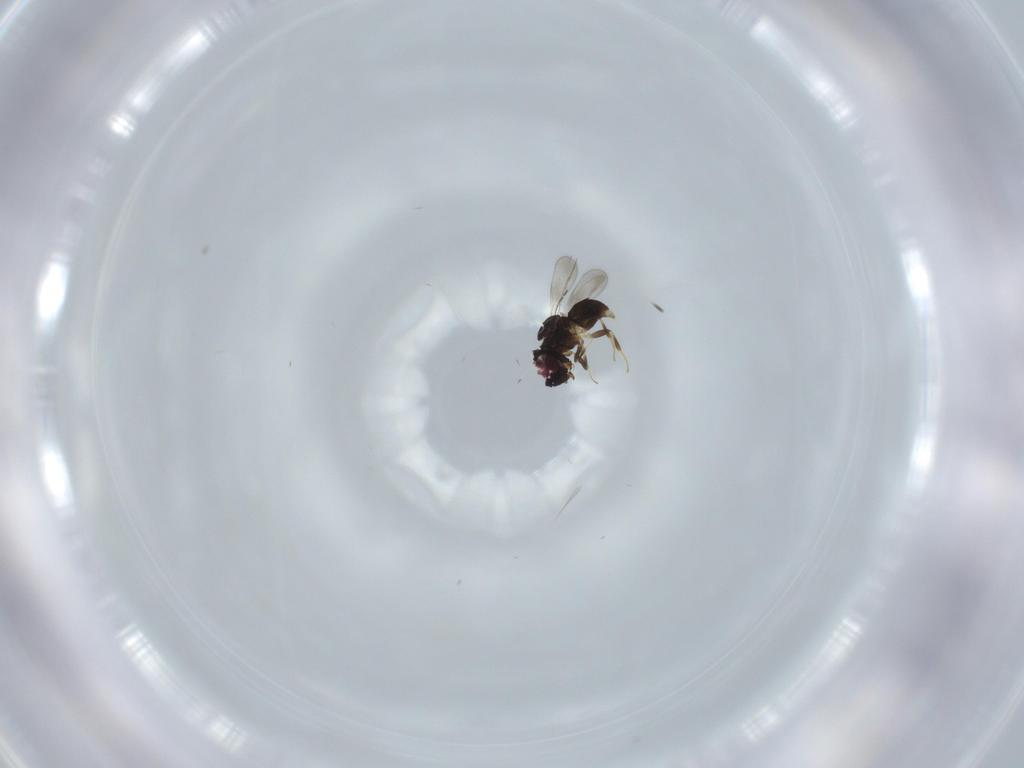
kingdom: Animalia
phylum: Arthropoda
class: Insecta
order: Hymenoptera
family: Ceraphronidae
